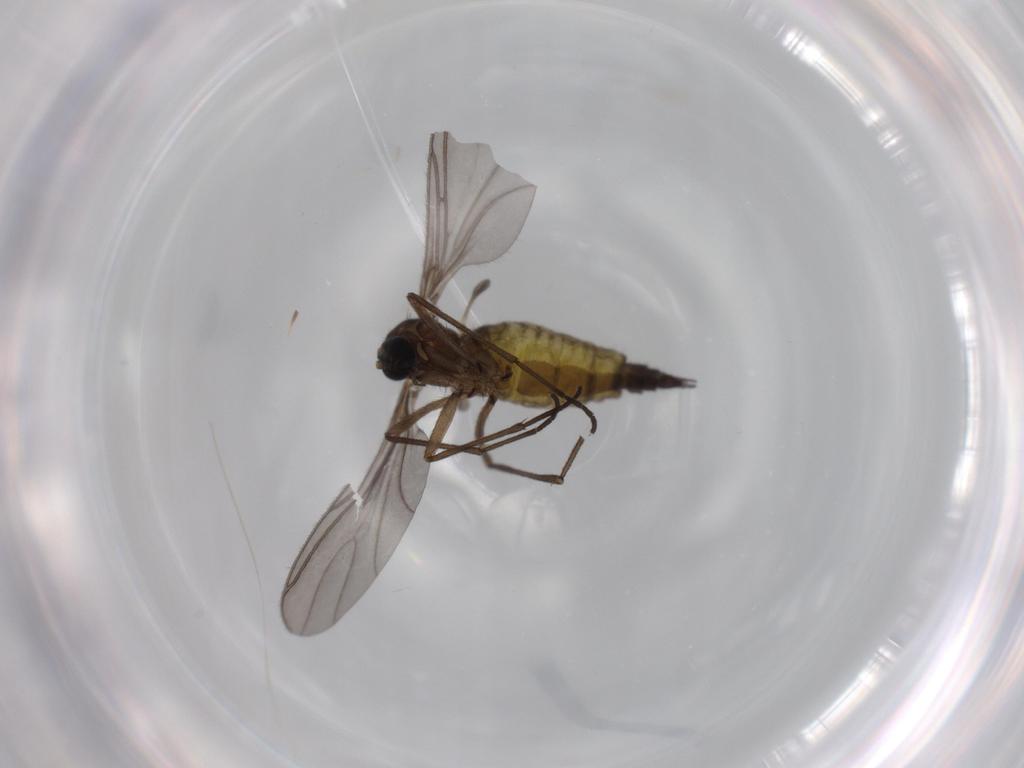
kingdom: Animalia
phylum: Arthropoda
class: Insecta
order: Diptera
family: Sciaridae
